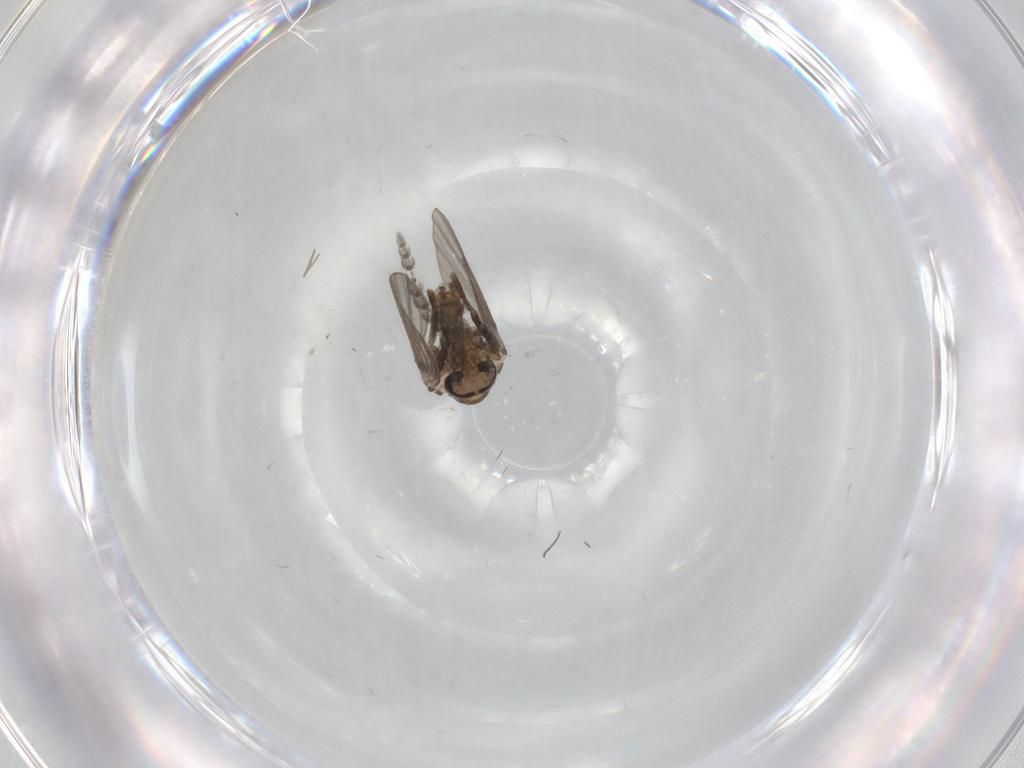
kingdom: Animalia
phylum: Arthropoda
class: Insecta
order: Diptera
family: Psychodidae
